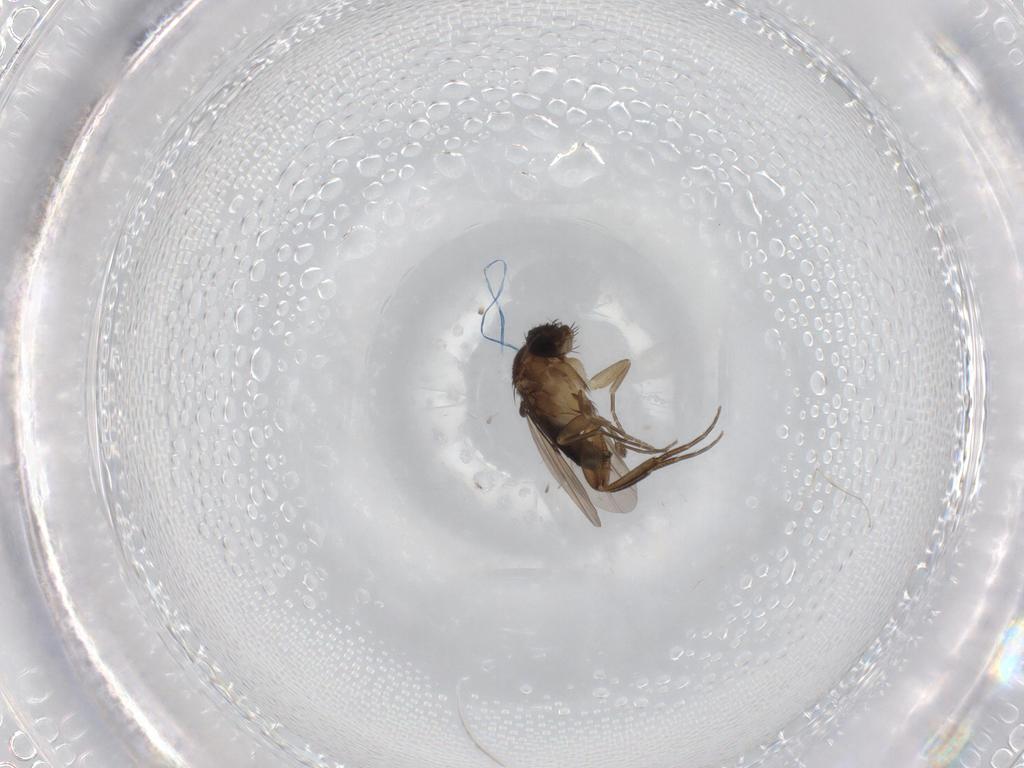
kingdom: Animalia
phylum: Arthropoda
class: Insecta
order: Diptera
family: Phoridae
